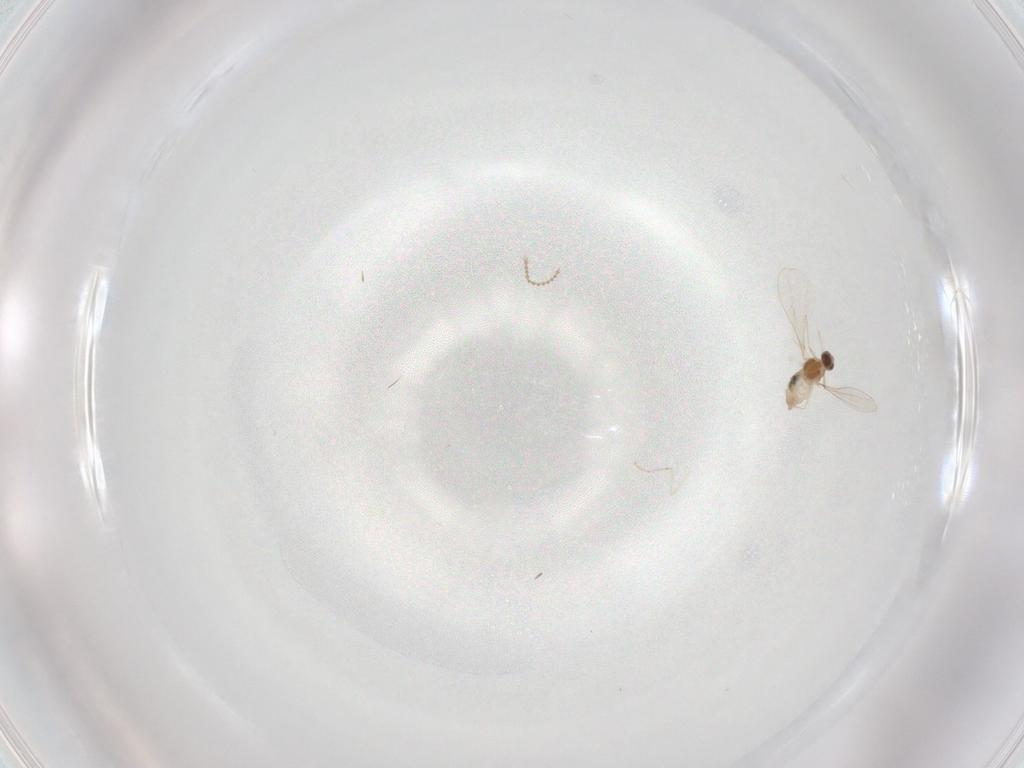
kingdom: Animalia
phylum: Arthropoda
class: Insecta
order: Diptera
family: Cecidomyiidae
